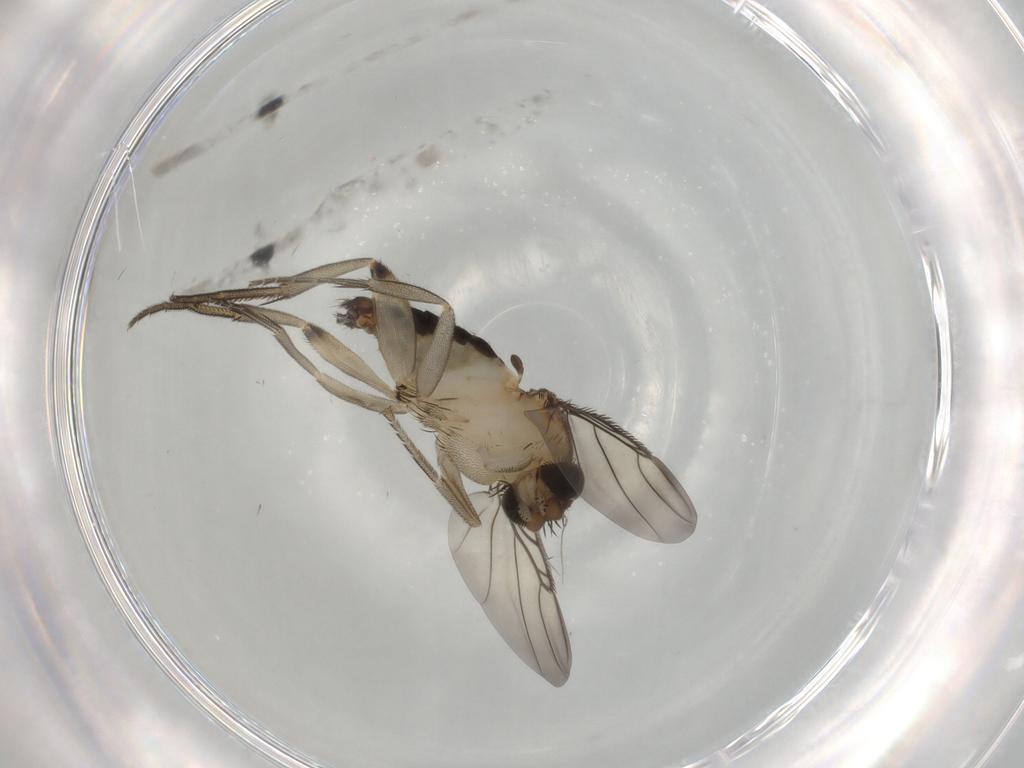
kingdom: Animalia
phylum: Arthropoda
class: Insecta
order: Diptera
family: Phoridae
